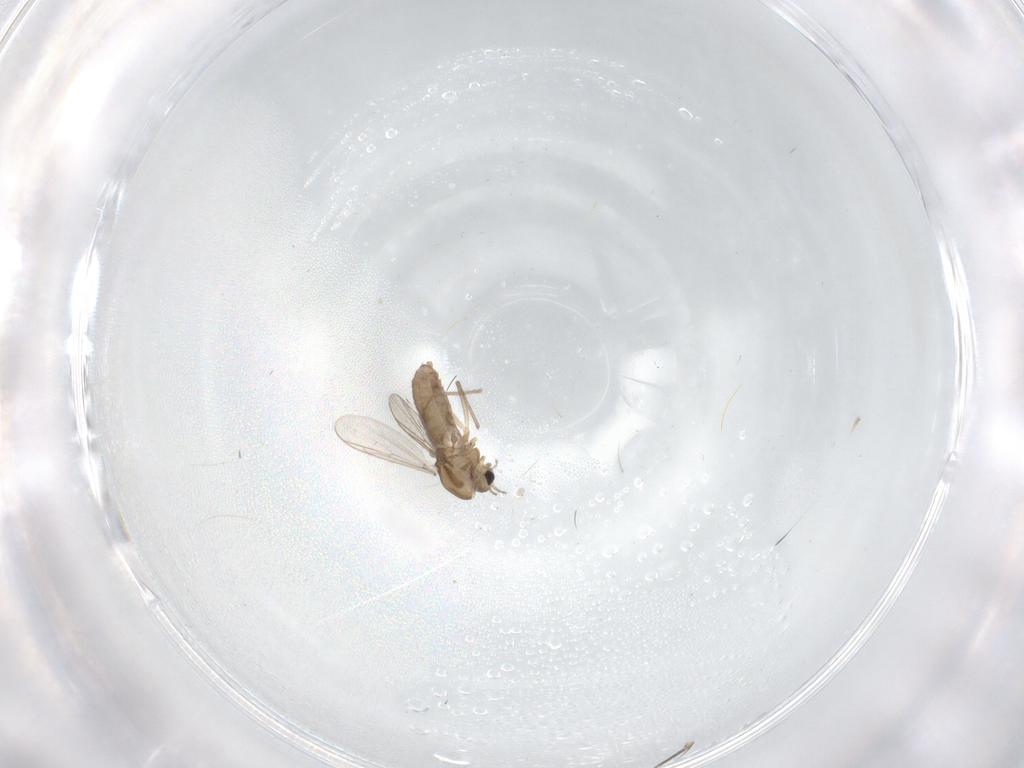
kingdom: Animalia
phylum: Arthropoda
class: Insecta
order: Diptera
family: Chironomidae
